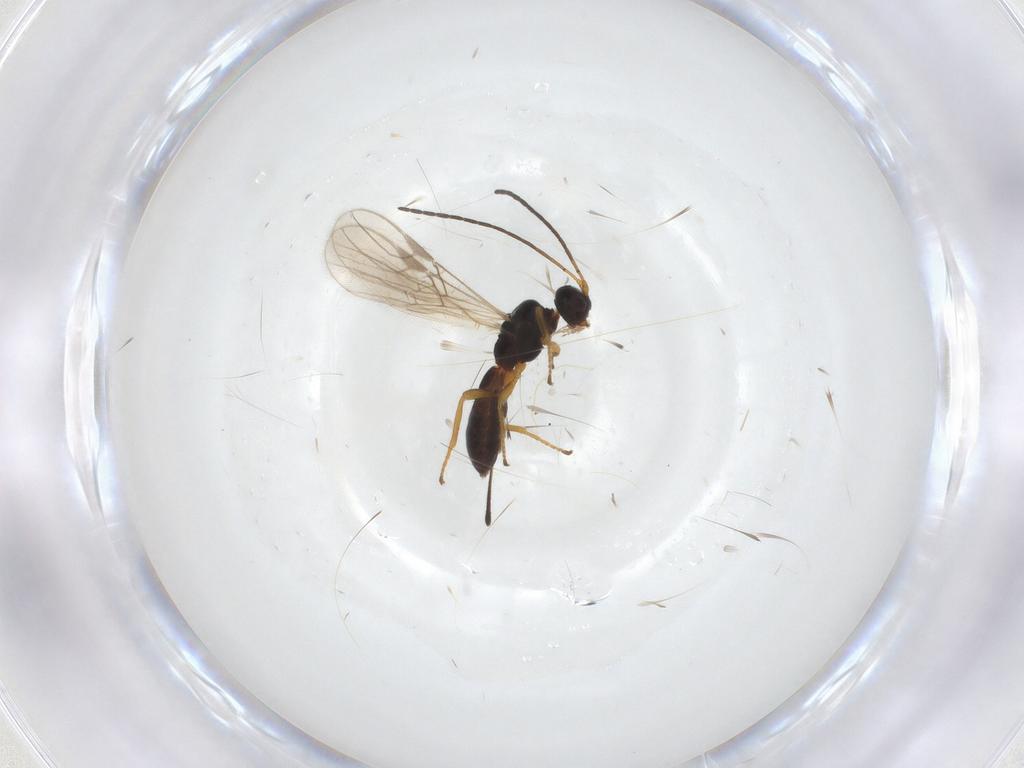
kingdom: Animalia
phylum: Arthropoda
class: Insecta
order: Hymenoptera
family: Braconidae
